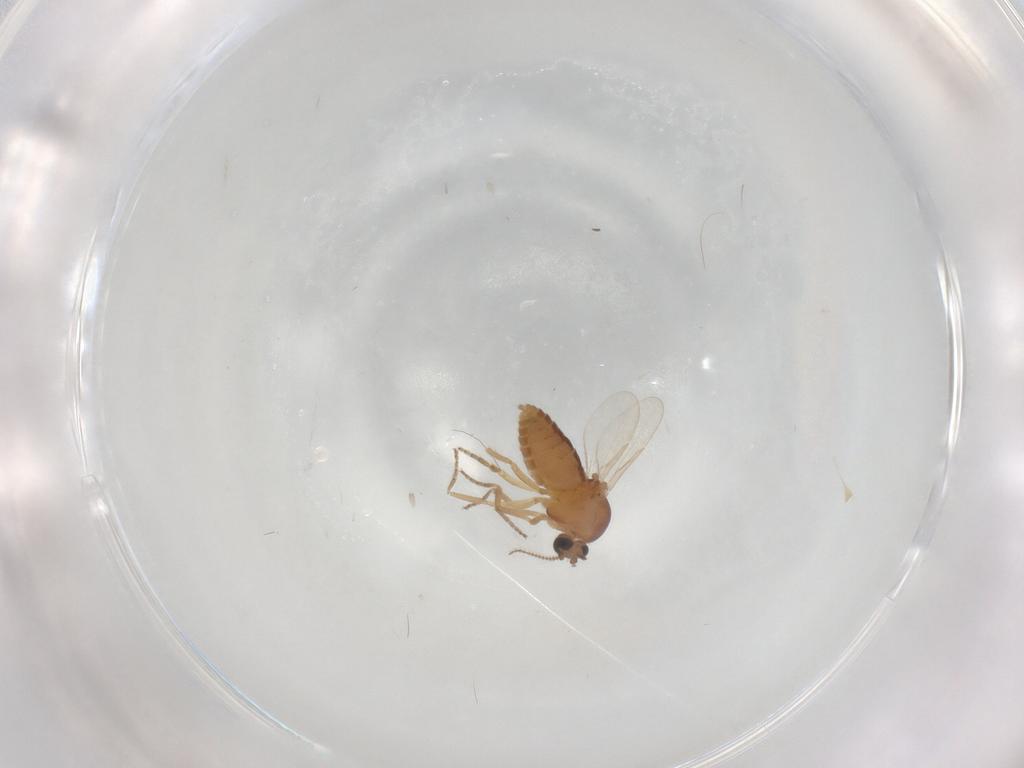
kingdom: Animalia
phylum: Arthropoda
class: Insecta
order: Diptera
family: Ceratopogonidae
